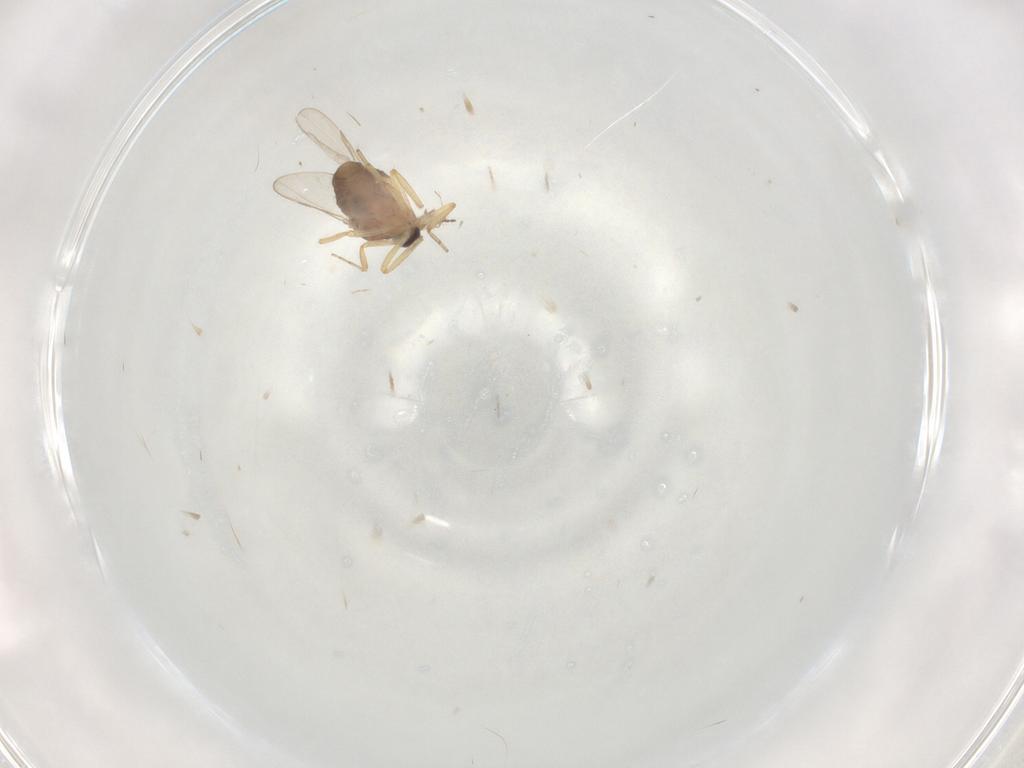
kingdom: Animalia
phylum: Arthropoda
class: Insecta
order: Diptera
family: Ceratopogonidae
